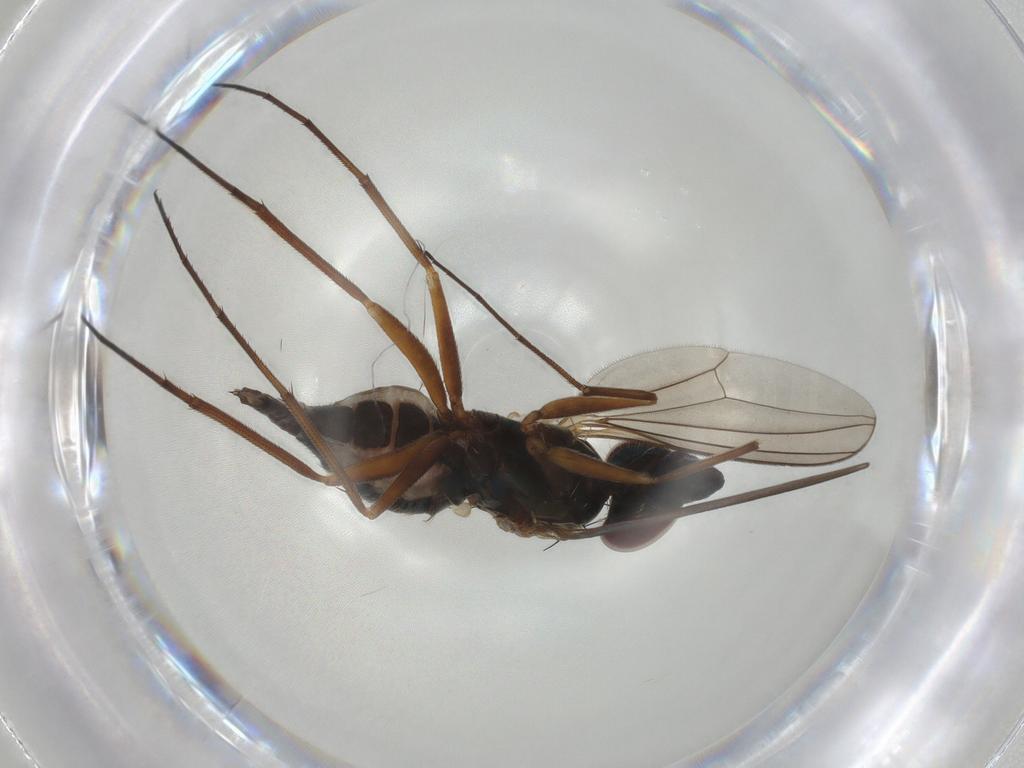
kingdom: Animalia
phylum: Arthropoda
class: Insecta
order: Diptera
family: Dolichopodidae
